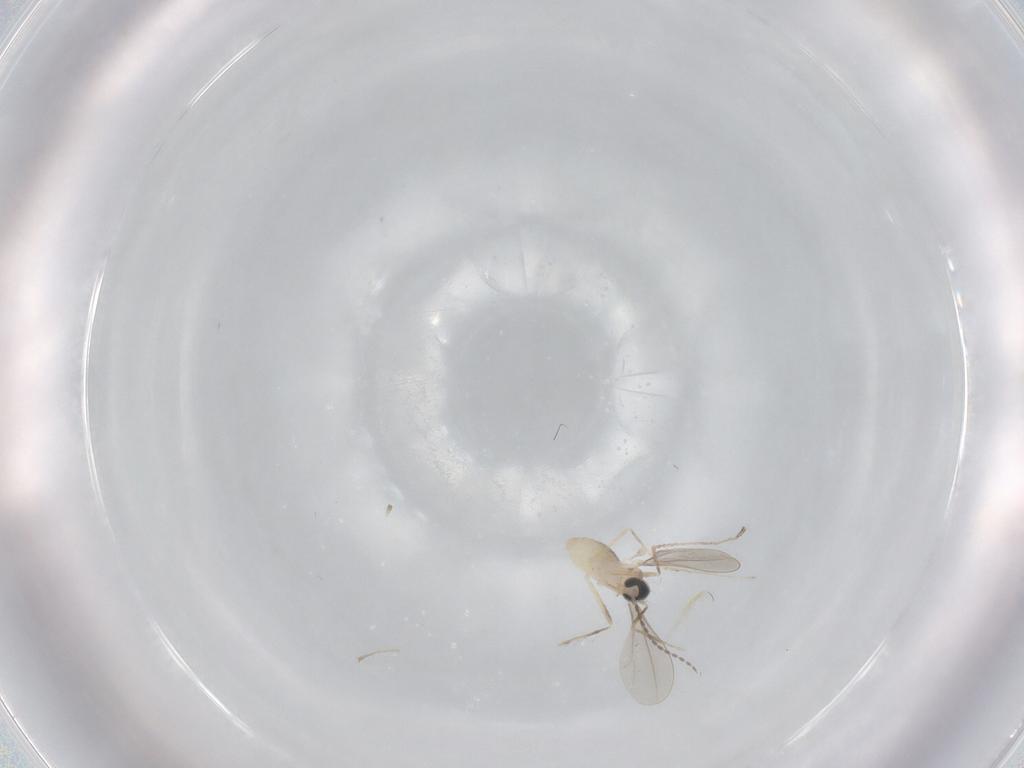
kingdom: Animalia
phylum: Arthropoda
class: Insecta
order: Diptera
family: Cecidomyiidae
